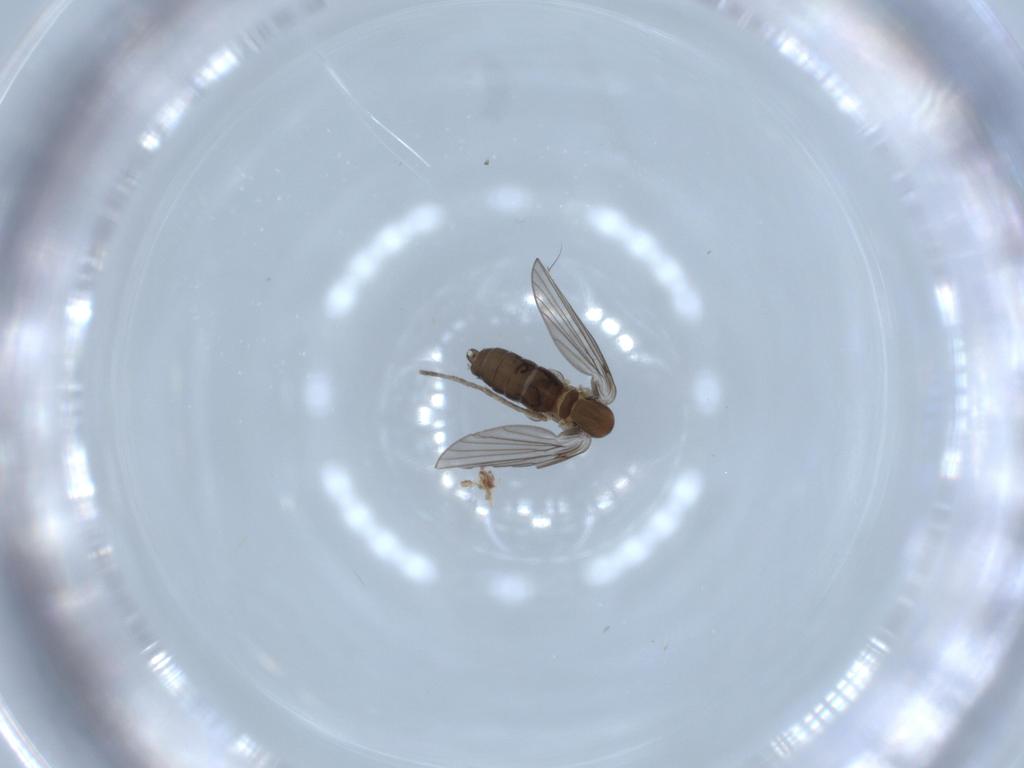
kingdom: Animalia
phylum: Arthropoda
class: Insecta
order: Diptera
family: Psychodidae
